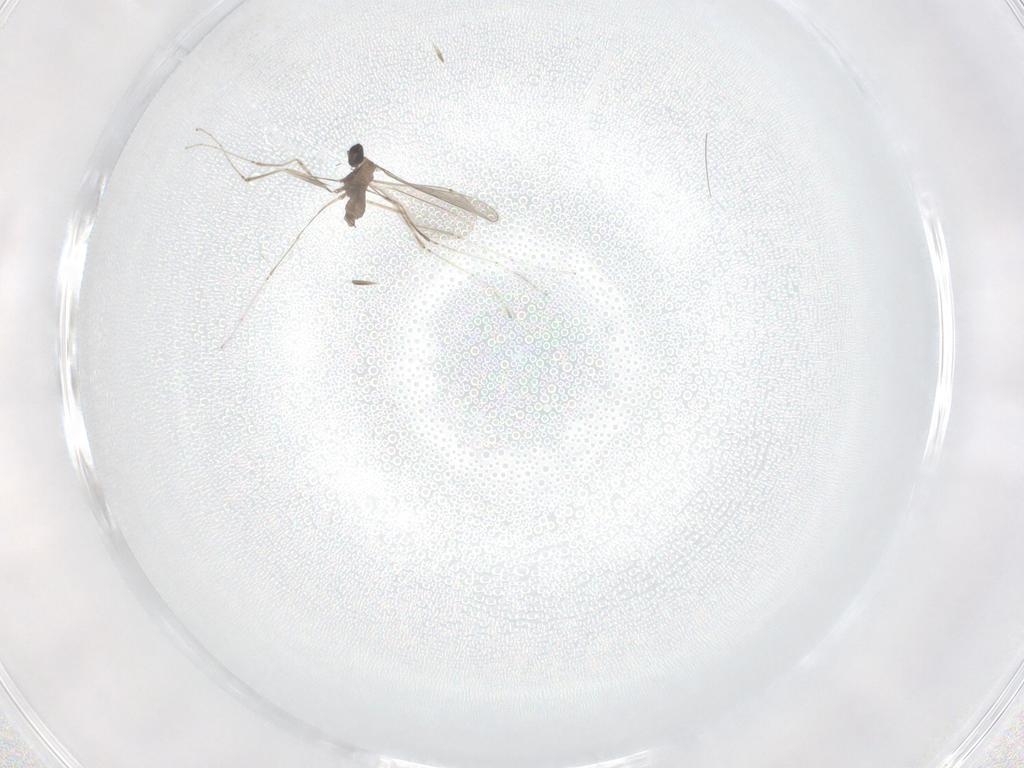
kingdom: Animalia
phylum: Arthropoda
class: Insecta
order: Diptera
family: Cecidomyiidae
